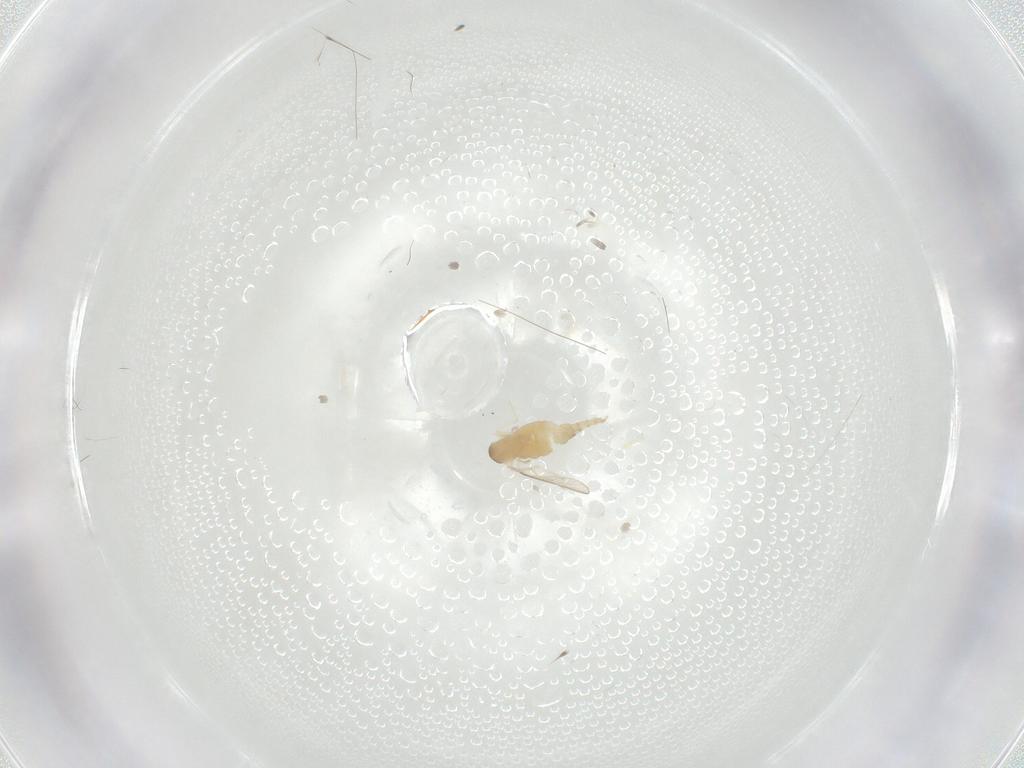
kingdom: Animalia
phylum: Arthropoda
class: Insecta
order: Diptera
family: Cecidomyiidae
